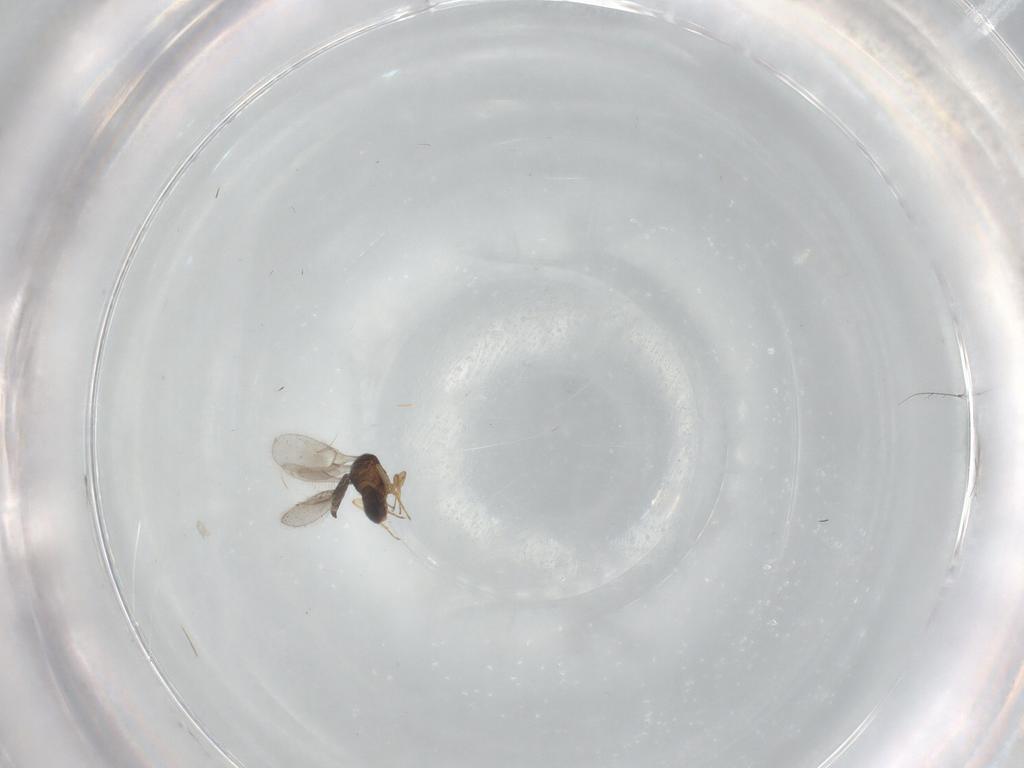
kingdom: Animalia
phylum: Arthropoda
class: Insecta
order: Hymenoptera
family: Scelionidae
